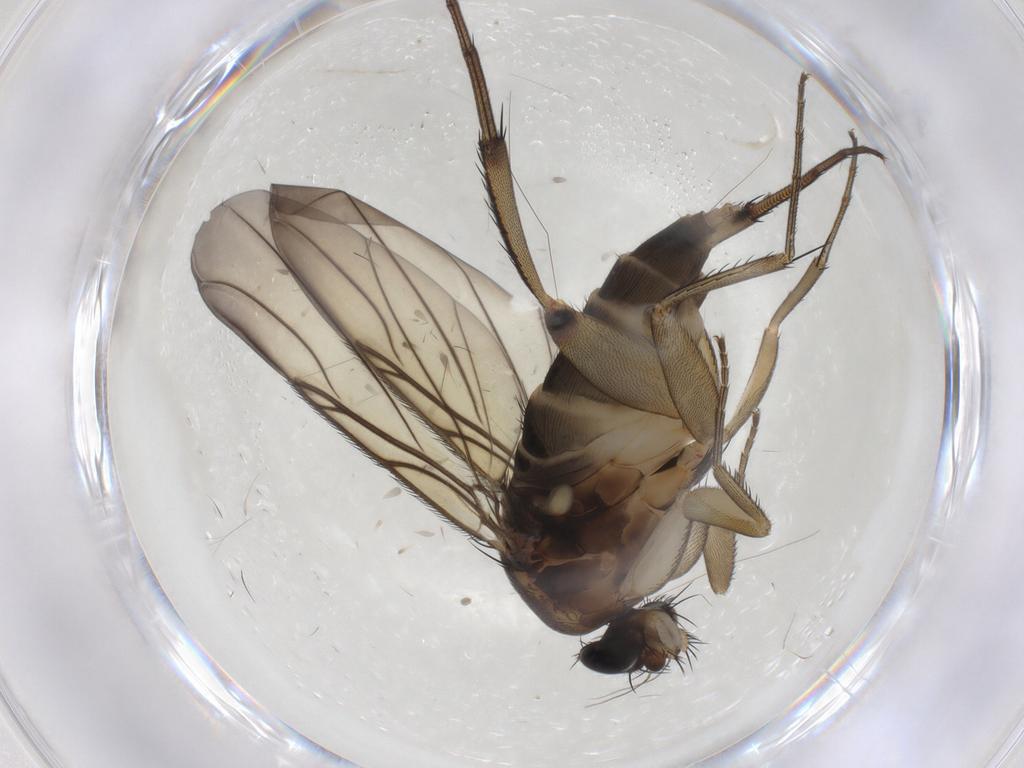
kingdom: Animalia
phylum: Arthropoda
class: Insecta
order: Diptera
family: Phoridae
